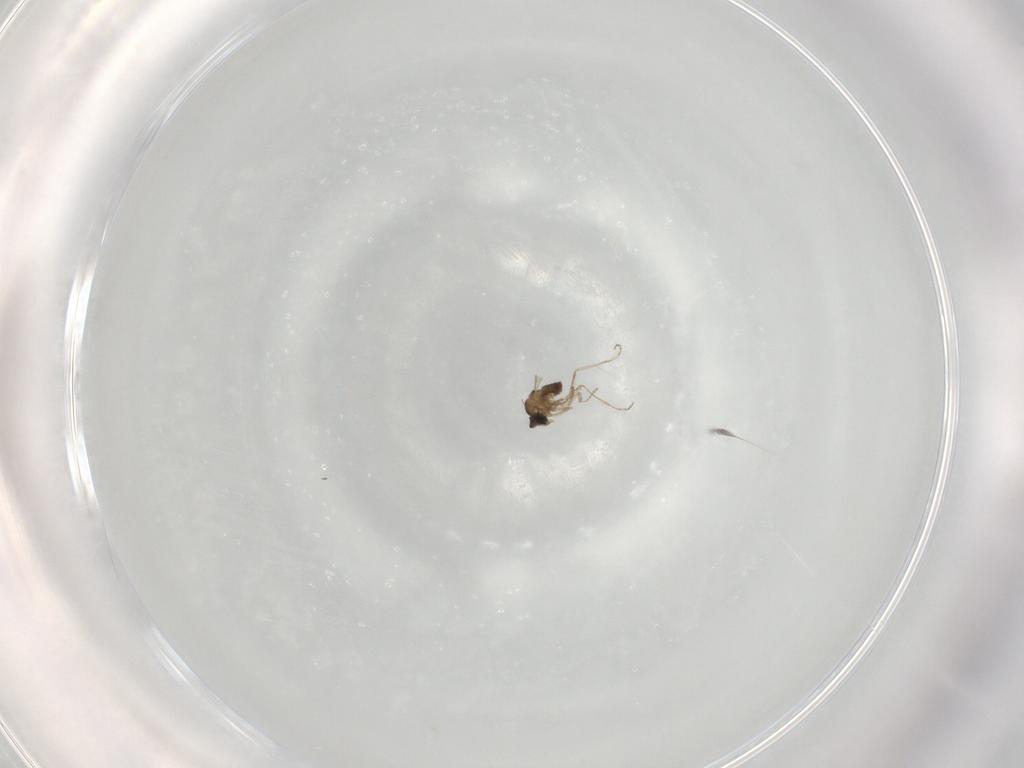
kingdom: Animalia
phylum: Arthropoda
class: Insecta
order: Diptera
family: Cecidomyiidae
